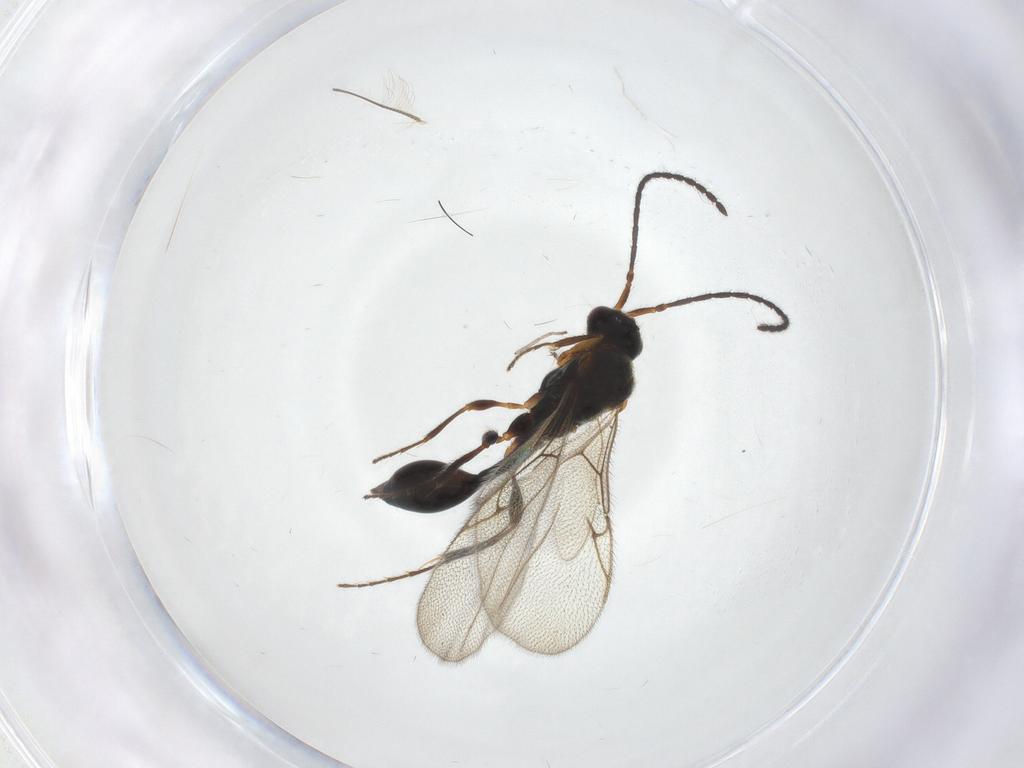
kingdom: Animalia
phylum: Arthropoda
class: Insecta
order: Hymenoptera
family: Diapriidae
